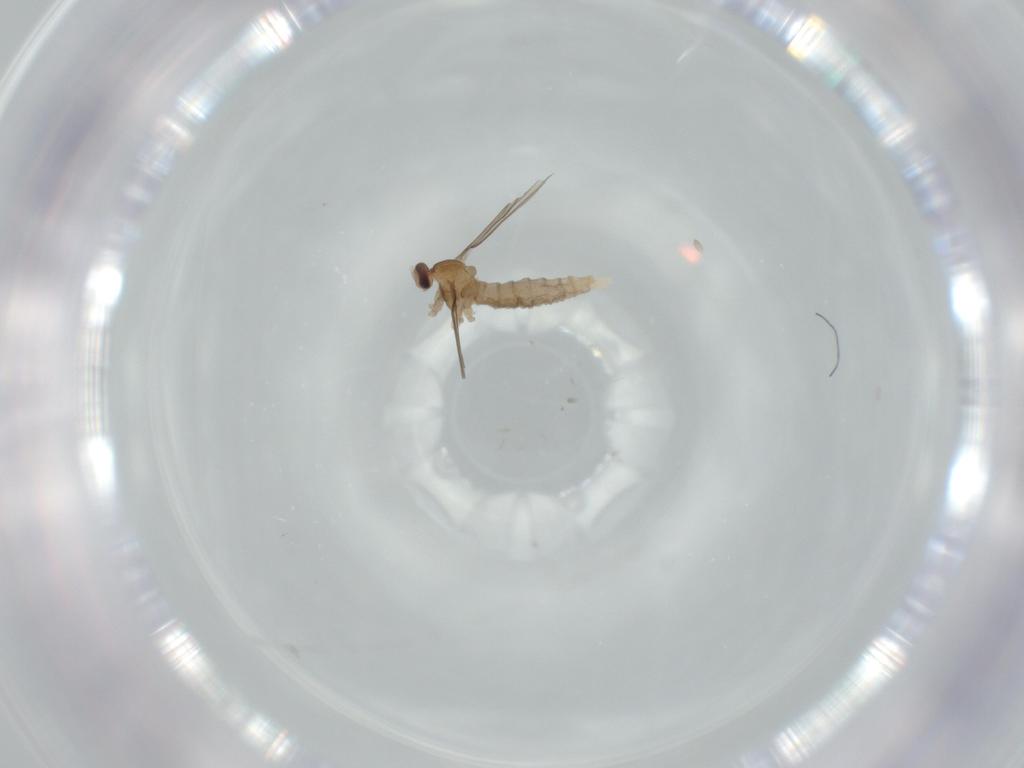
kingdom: Animalia
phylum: Arthropoda
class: Insecta
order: Diptera
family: Cecidomyiidae
